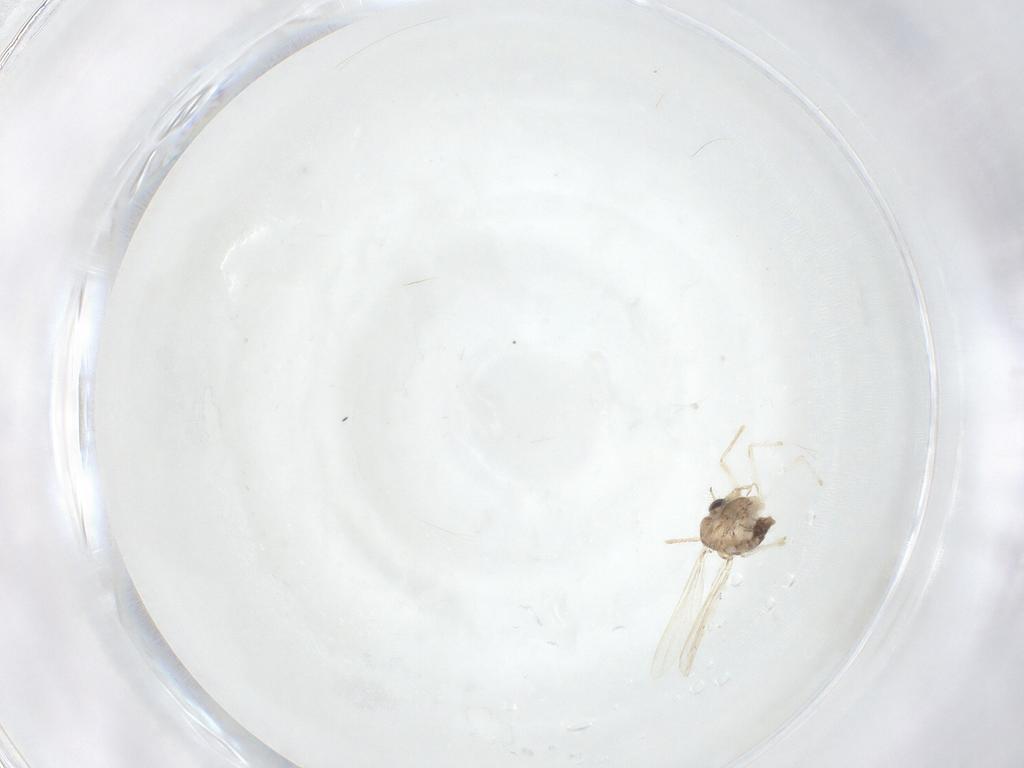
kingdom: Animalia
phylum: Arthropoda
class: Insecta
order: Diptera
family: Chironomidae
